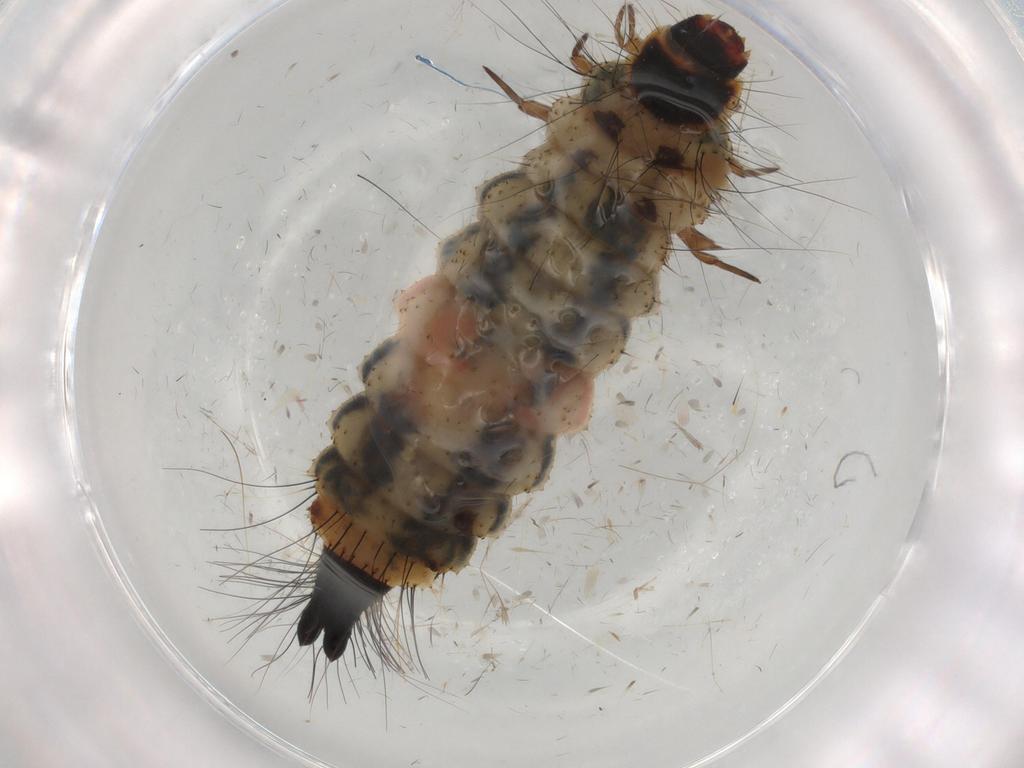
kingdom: Animalia
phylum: Arthropoda
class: Insecta
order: Coleoptera
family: Cleridae
